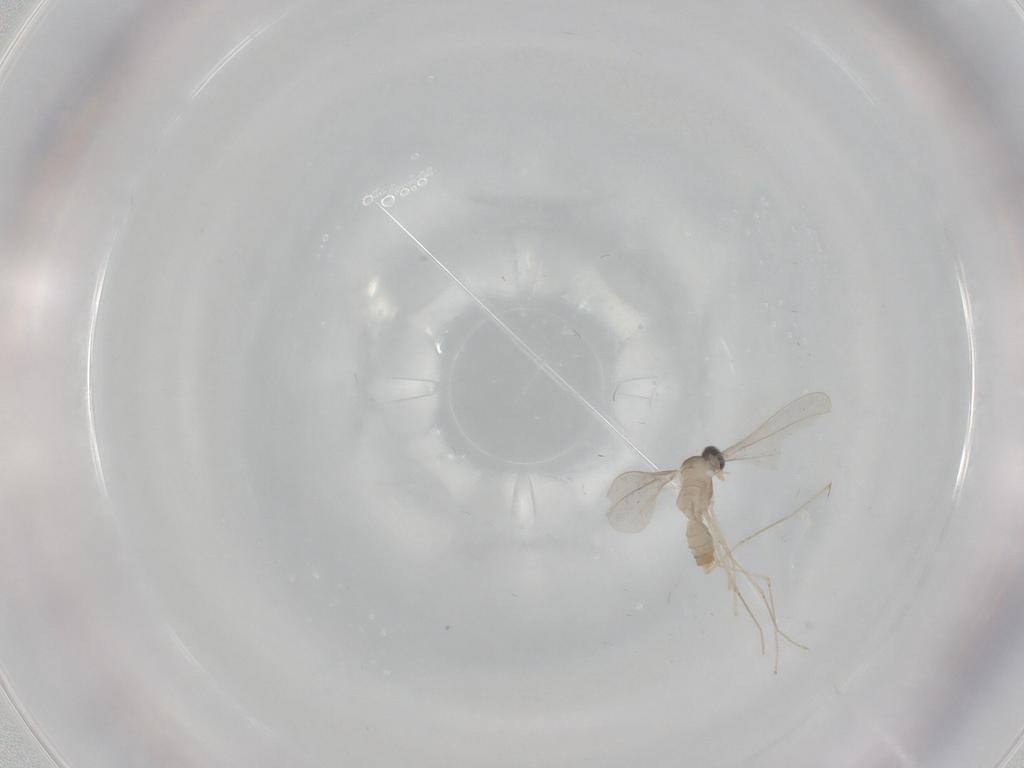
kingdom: Animalia
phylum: Arthropoda
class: Insecta
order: Diptera
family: Cecidomyiidae
